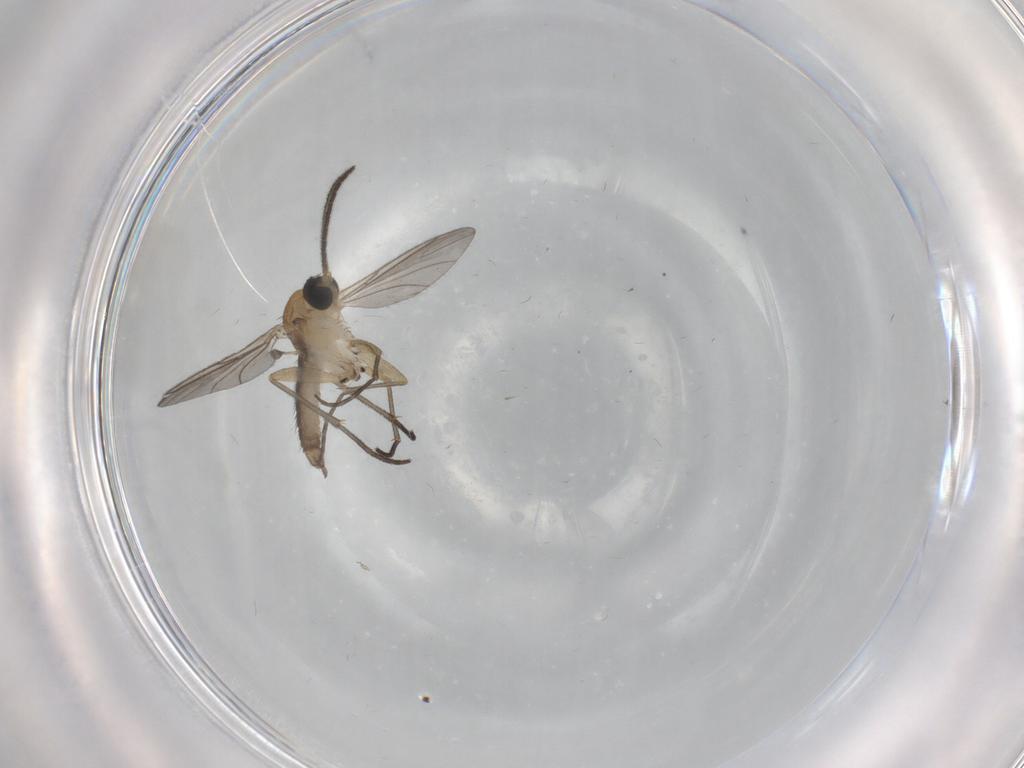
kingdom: Animalia
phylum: Arthropoda
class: Insecta
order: Diptera
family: Cecidomyiidae
